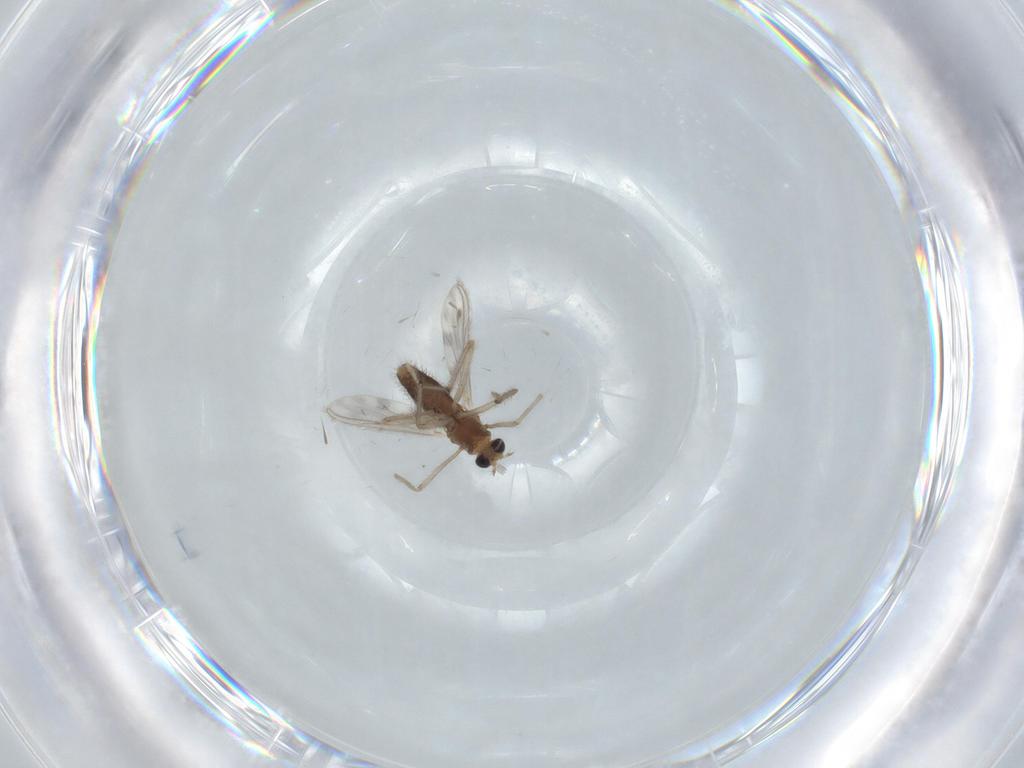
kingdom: Animalia
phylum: Arthropoda
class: Insecta
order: Diptera
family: Chironomidae
